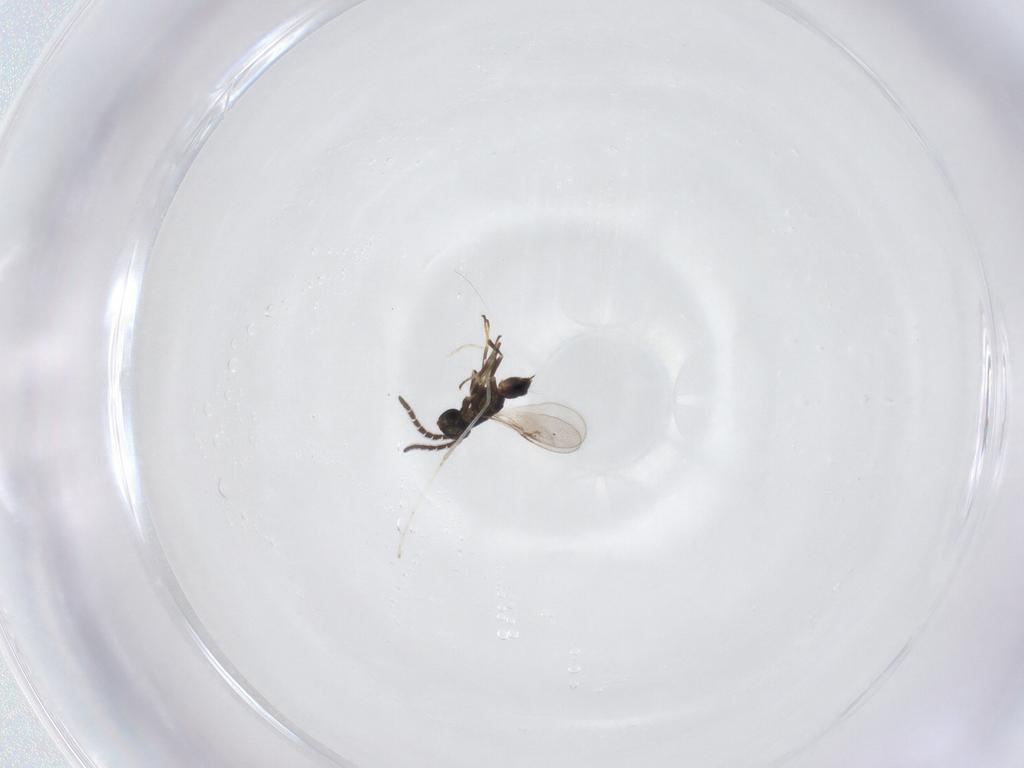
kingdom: Animalia
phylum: Arthropoda
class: Insecta
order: Hymenoptera
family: Encyrtidae
